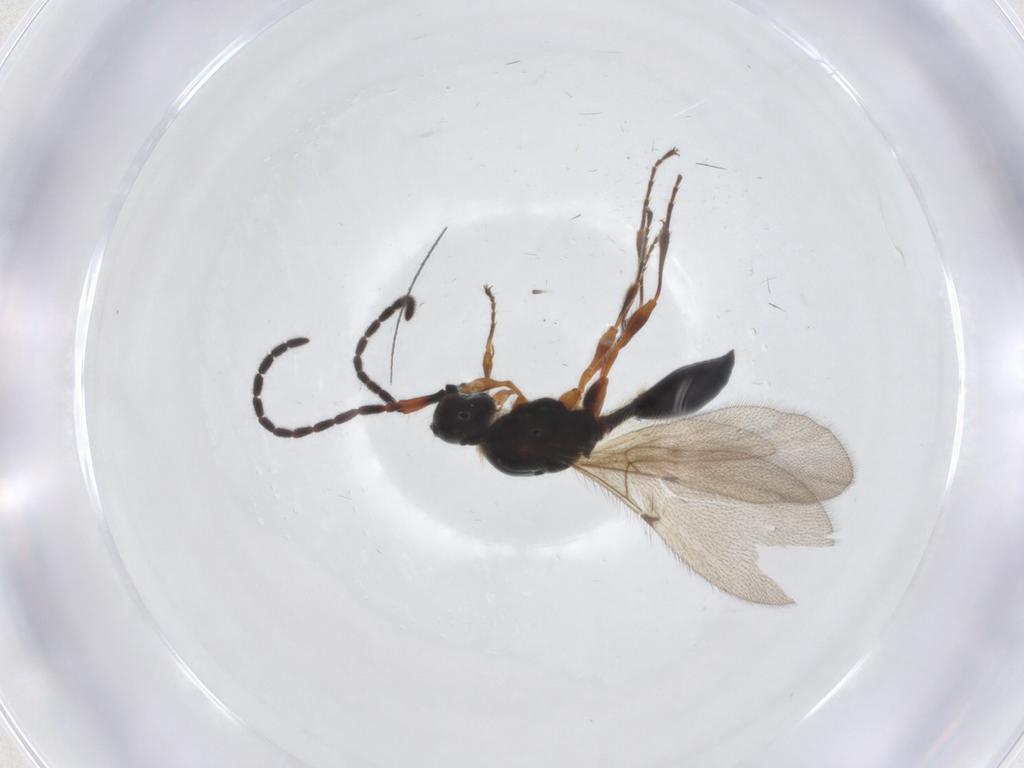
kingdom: Animalia
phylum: Arthropoda
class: Insecta
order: Hymenoptera
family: Diapriidae
